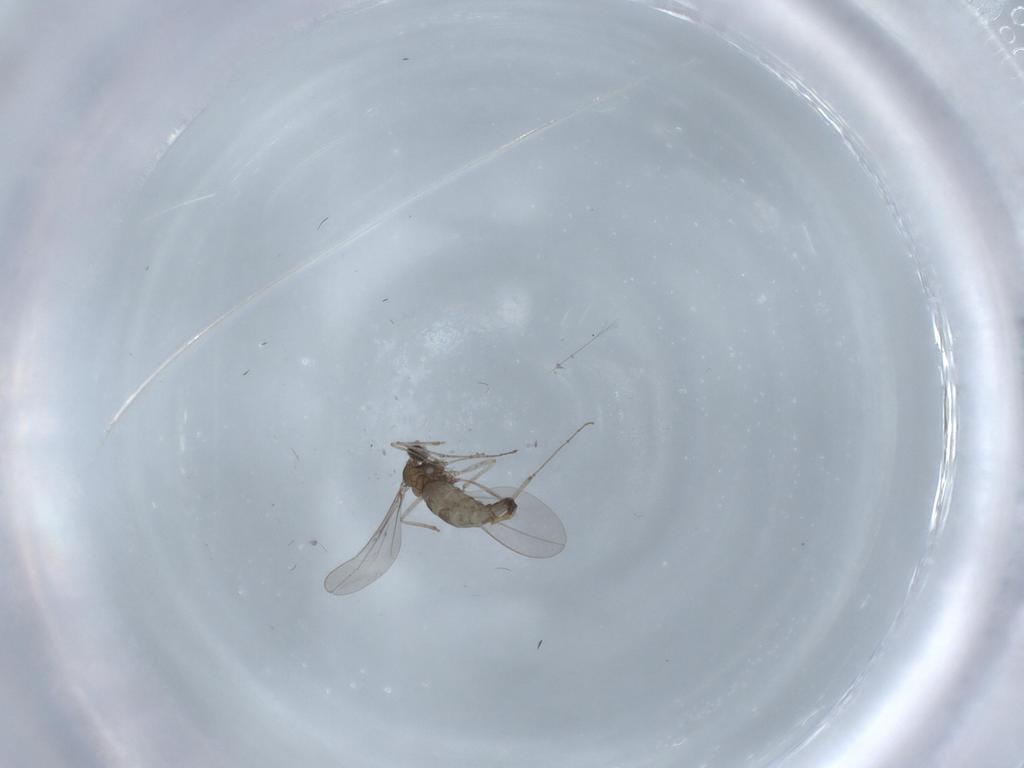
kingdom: Animalia
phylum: Arthropoda
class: Insecta
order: Diptera
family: Cecidomyiidae
